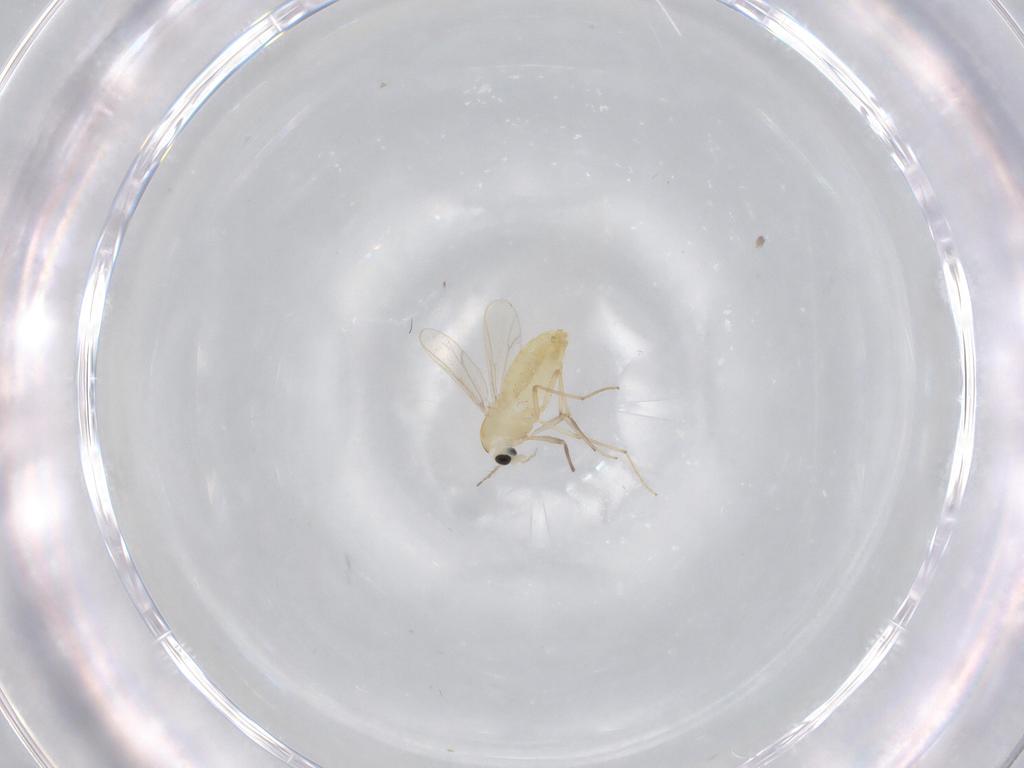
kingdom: Animalia
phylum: Arthropoda
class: Insecta
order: Diptera
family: Chironomidae
